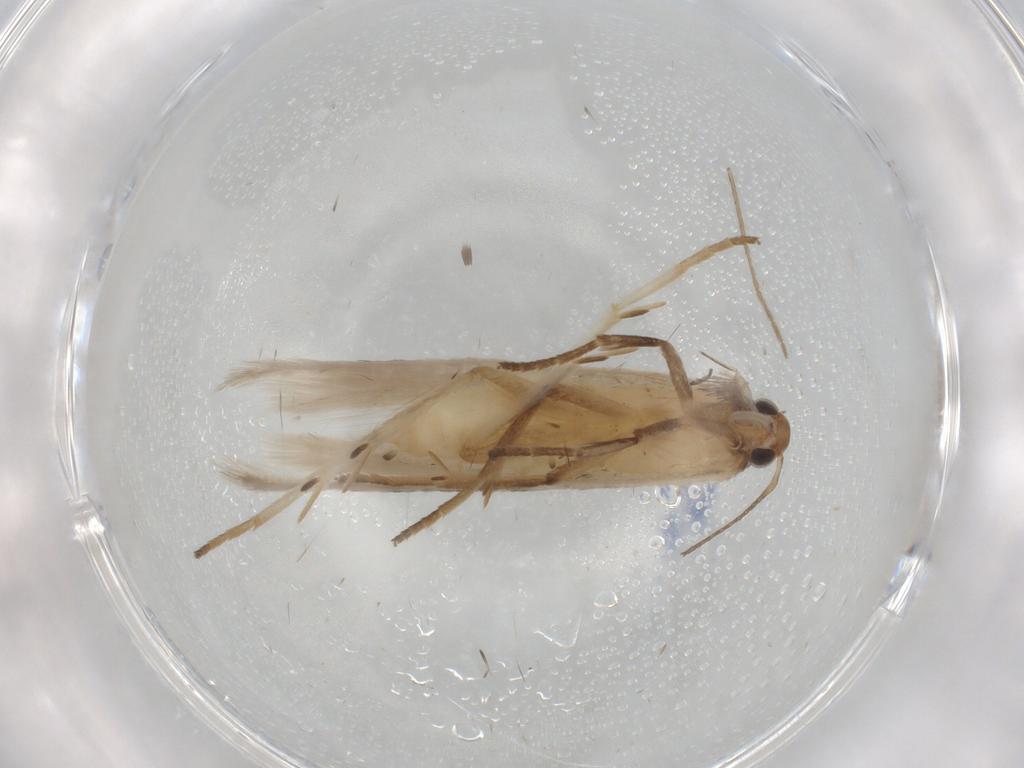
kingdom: Animalia
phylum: Arthropoda
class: Insecta
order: Lepidoptera
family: Gelechiidae
